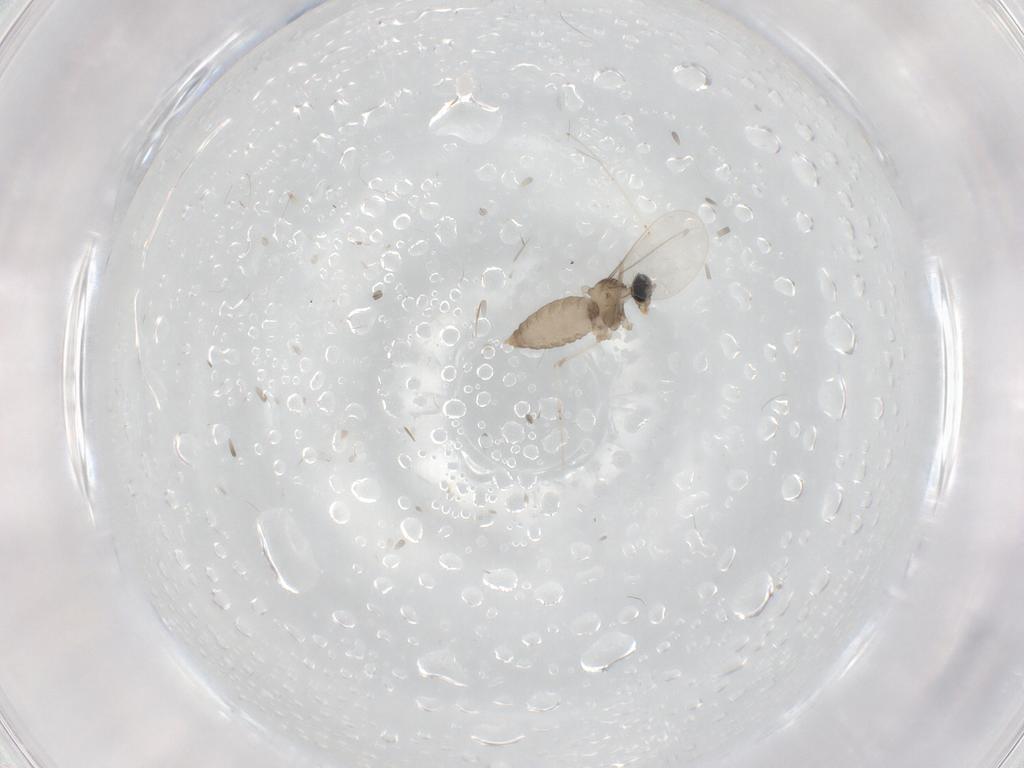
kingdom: Animalia
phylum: Arthropoda
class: Insecta
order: Diptera
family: Cecidomyiidae
